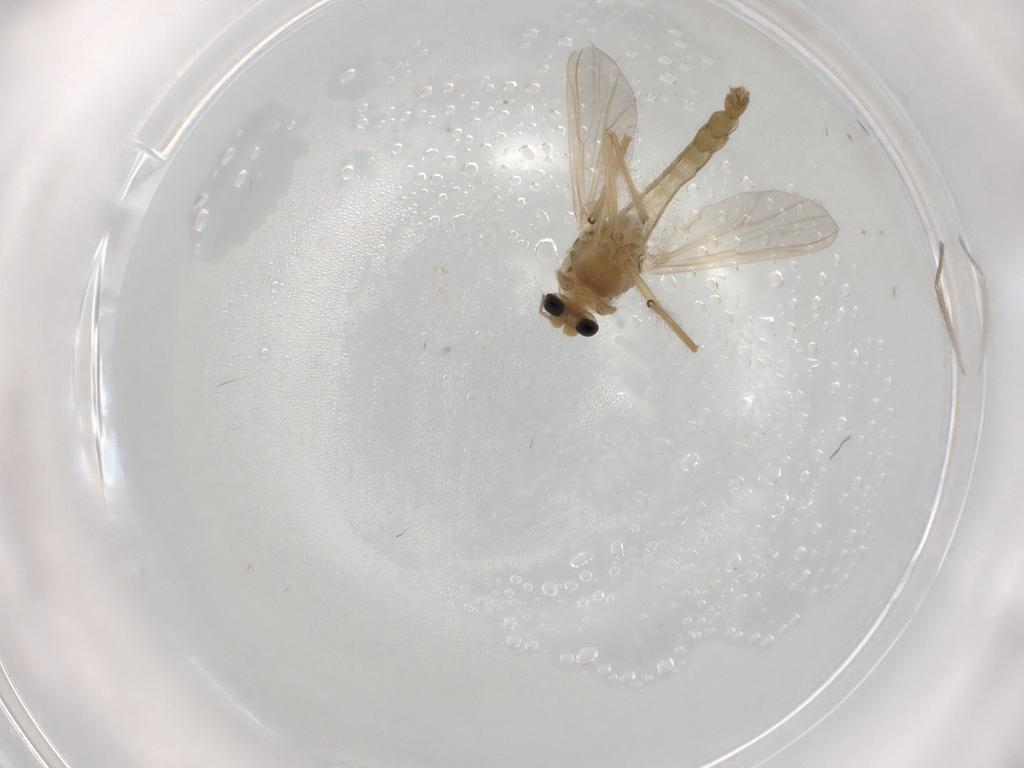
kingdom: Animalia
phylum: Arthropoda
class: Insecta
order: Diptera
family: Chironomidae
